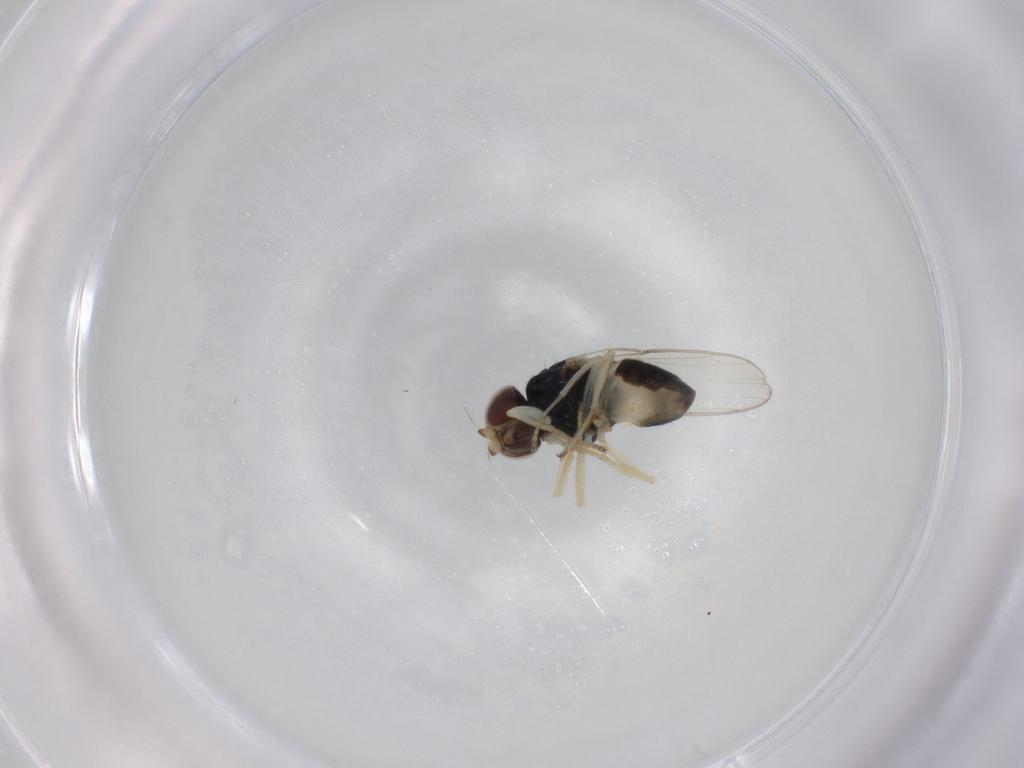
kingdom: Animalia
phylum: Arthropoda
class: Insecta
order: Diptera
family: Chloropidae
